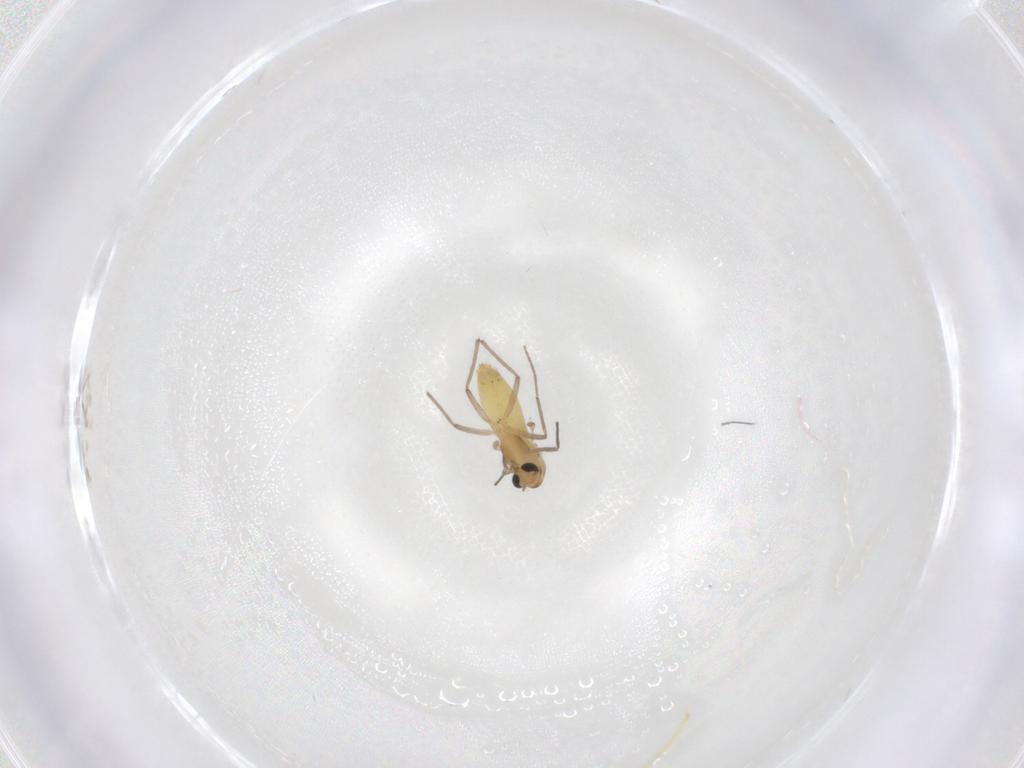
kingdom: Animalia
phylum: Arthropoda
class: Insecta
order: Diptera
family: Chironomidae
